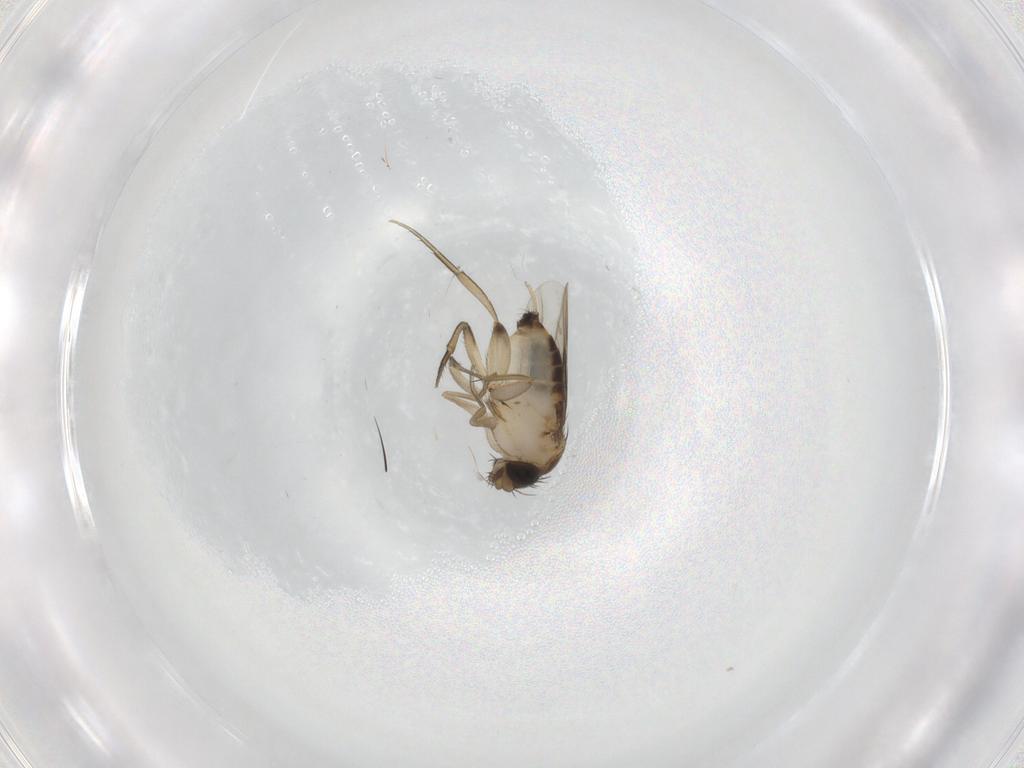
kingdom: Animalia
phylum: Arthropoda
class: Insecta
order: Diptera
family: Phoridae
